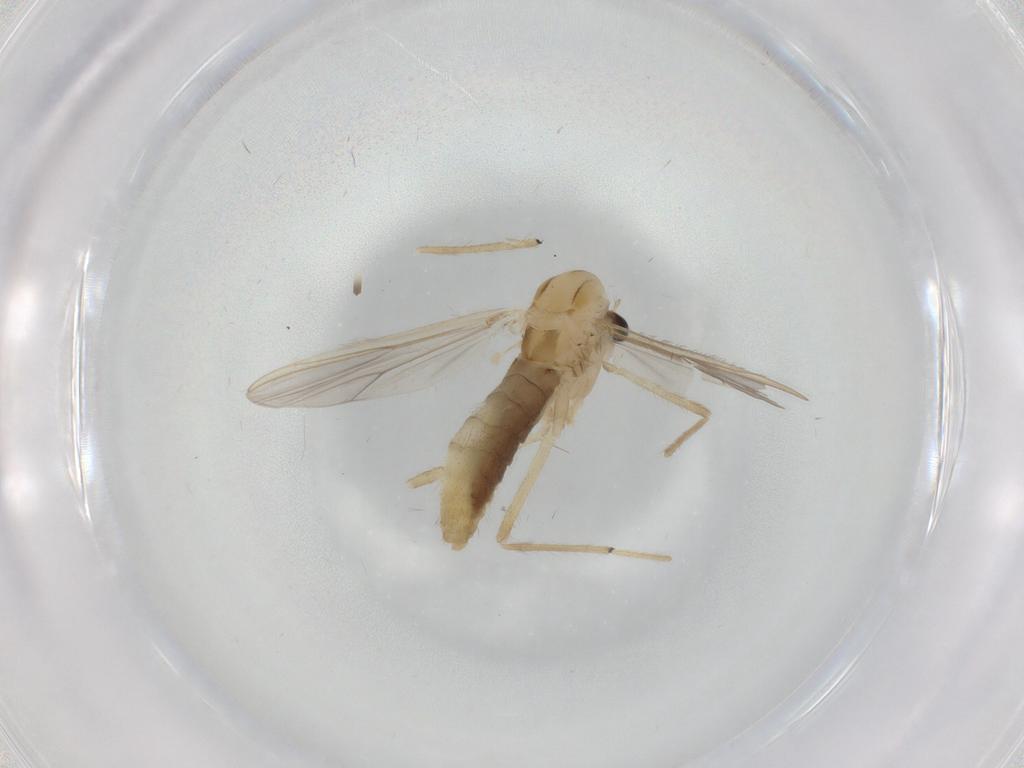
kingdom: Animalia
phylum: Arthropoda
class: Insecta
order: Diptera
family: Chironomidae
